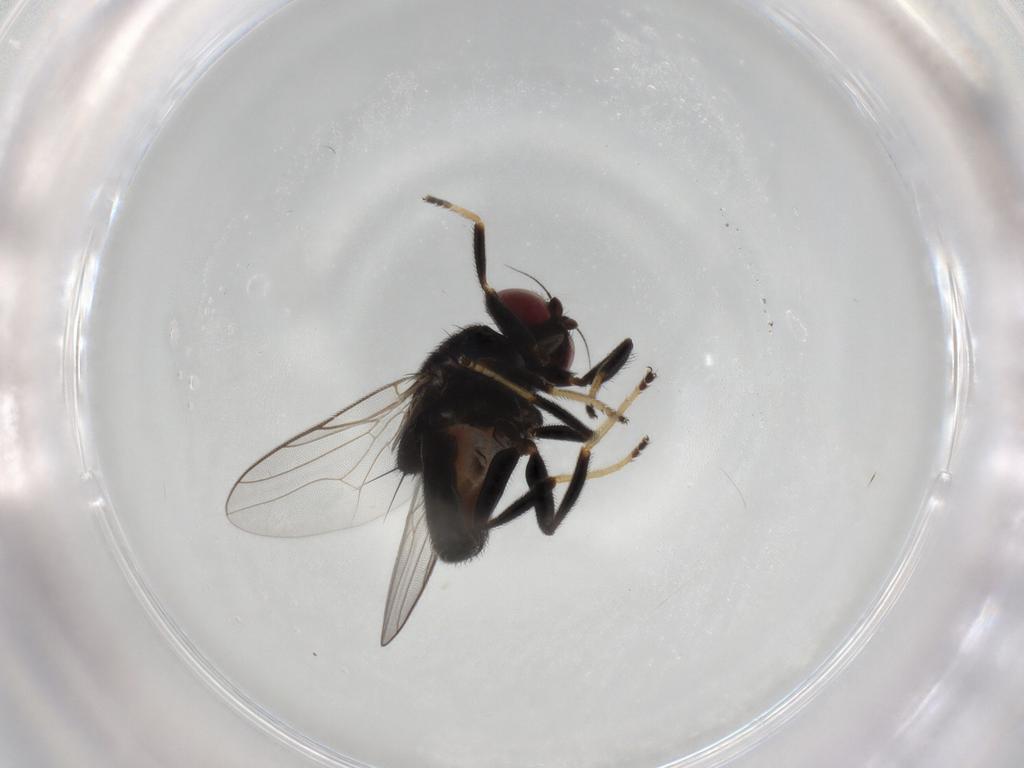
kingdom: Animalia
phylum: Arthropoda
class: Insecta
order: Diptera
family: Chloropidae
